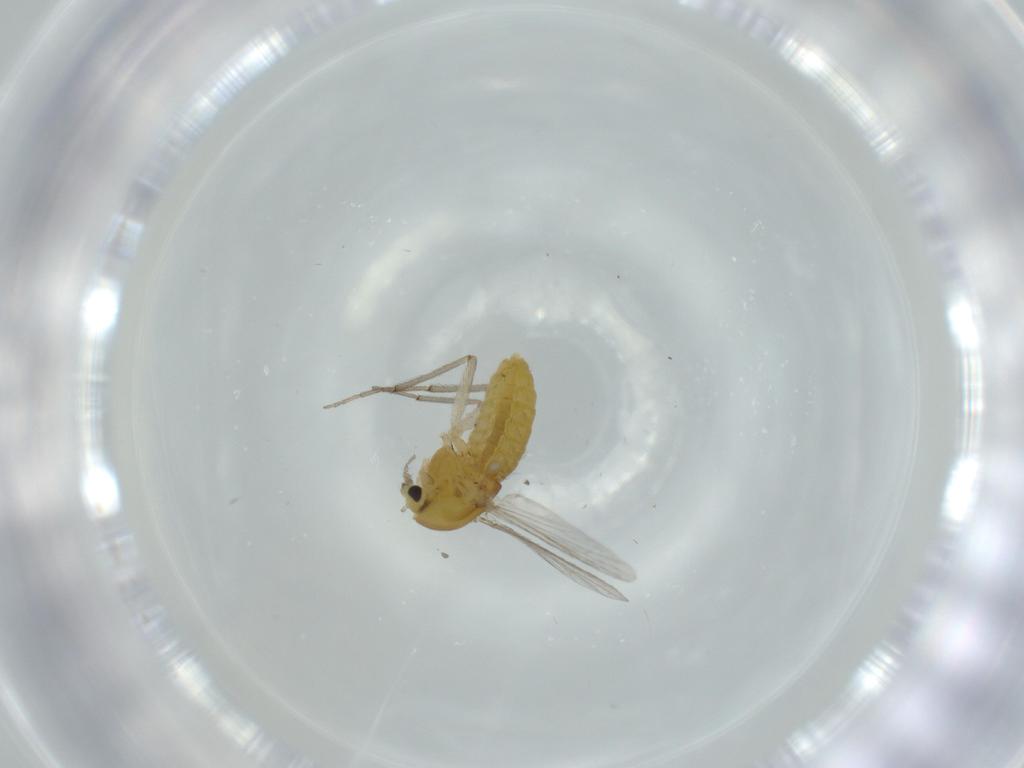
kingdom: Animalia
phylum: Arthropoda
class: Insecta
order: Diptera
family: Chironomidae
